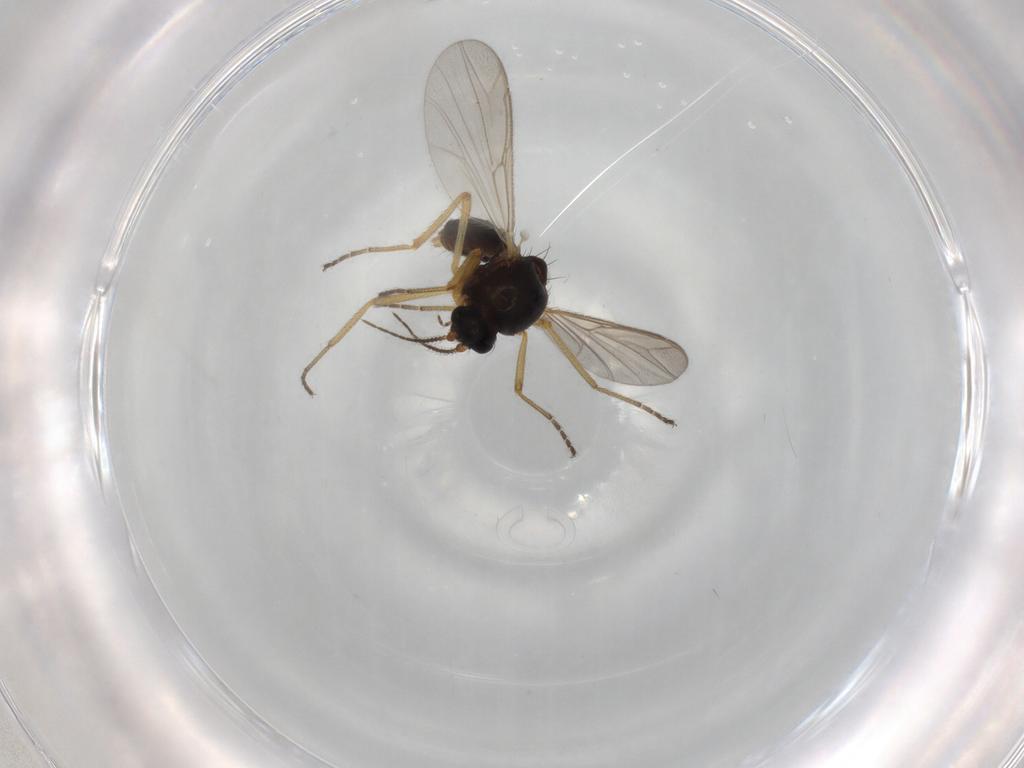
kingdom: Animalia
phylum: Arthropoda
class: Insecta
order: Diptera
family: Ceratopogonidae
